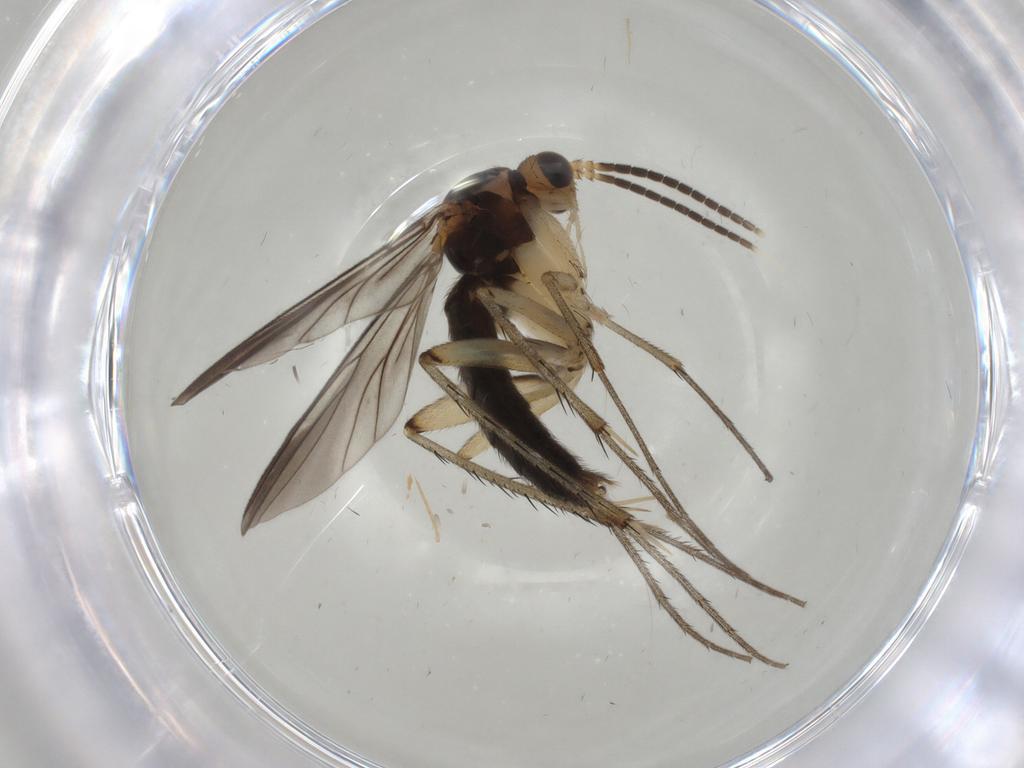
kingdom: Animalia
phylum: Arthropoda
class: Insecta
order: Diptera
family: Mycetophilidae
